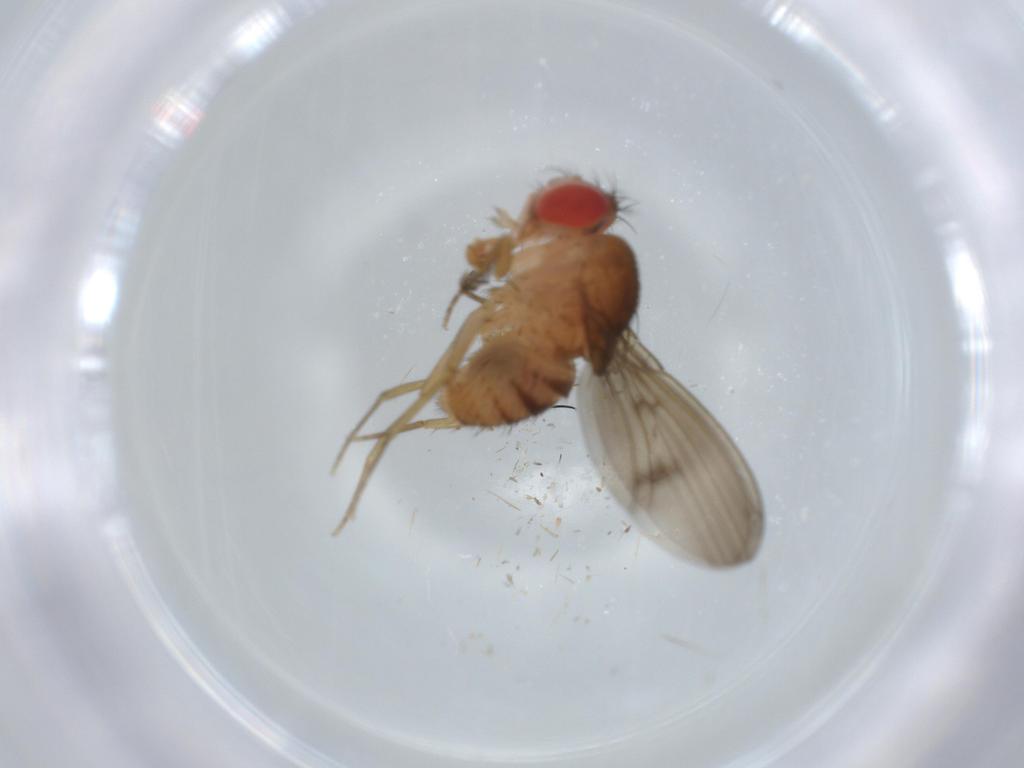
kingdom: Animalia
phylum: Arthropoda
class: Insecta
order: Diptera
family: Drosophilidae
